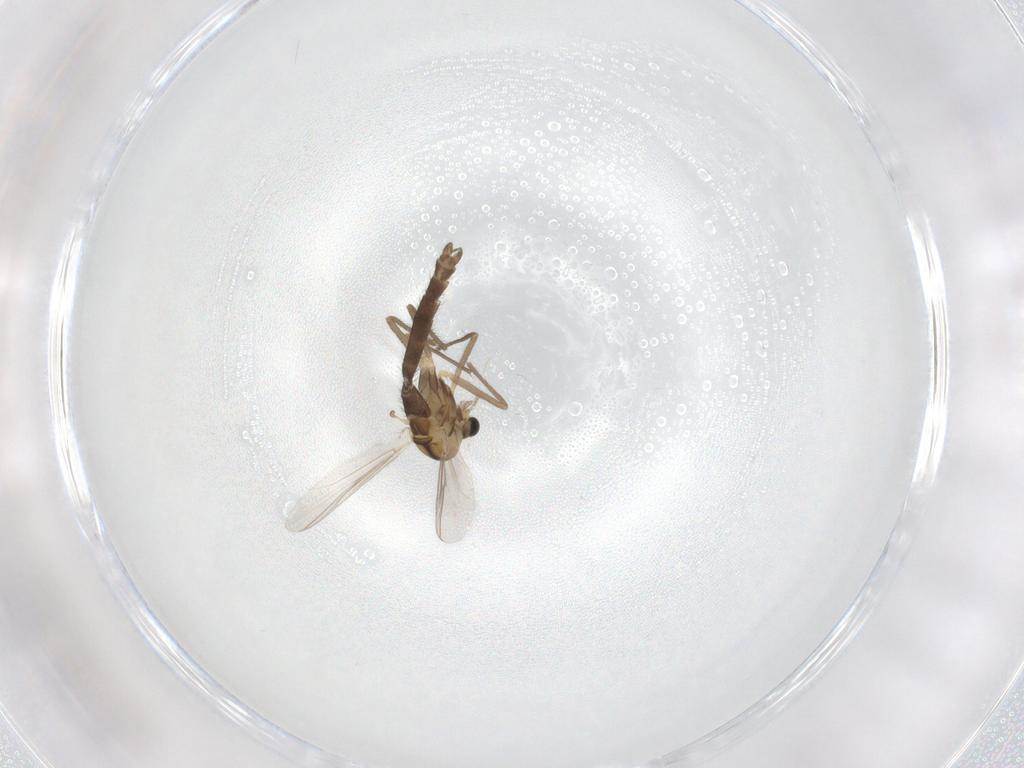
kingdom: Animalia
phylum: Arthropoda
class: Insecta
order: Diptera
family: Chironomidae
